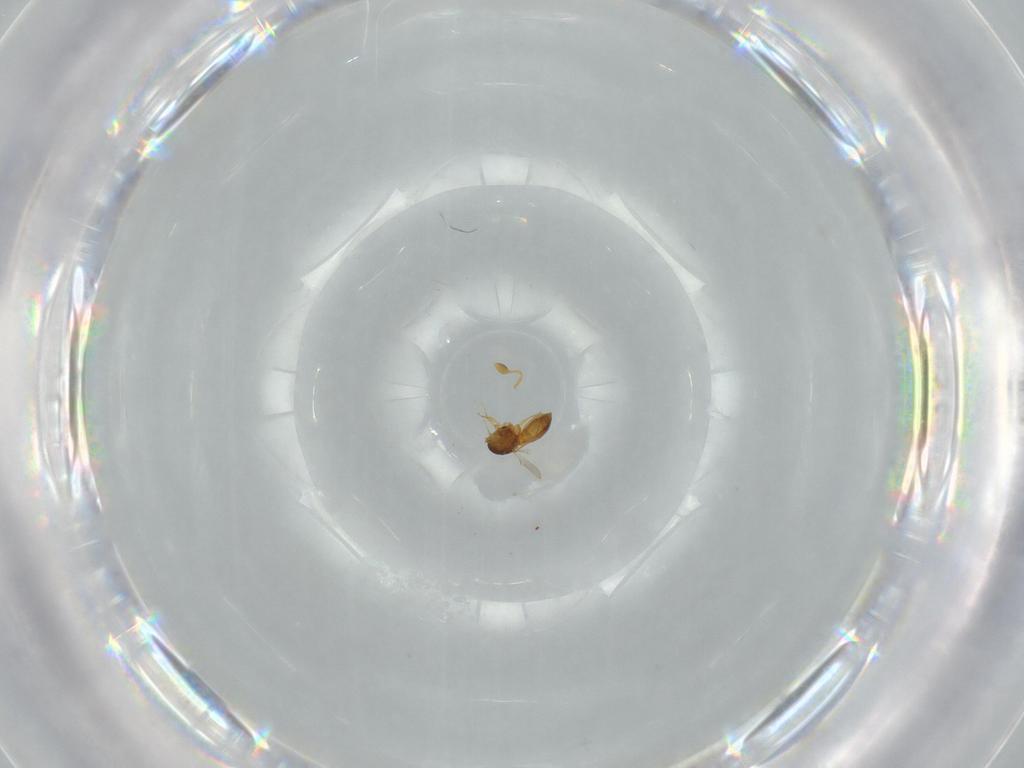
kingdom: Animalia
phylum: Arthropoda
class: Insecta
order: Hymenoptera
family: Scelionidae
